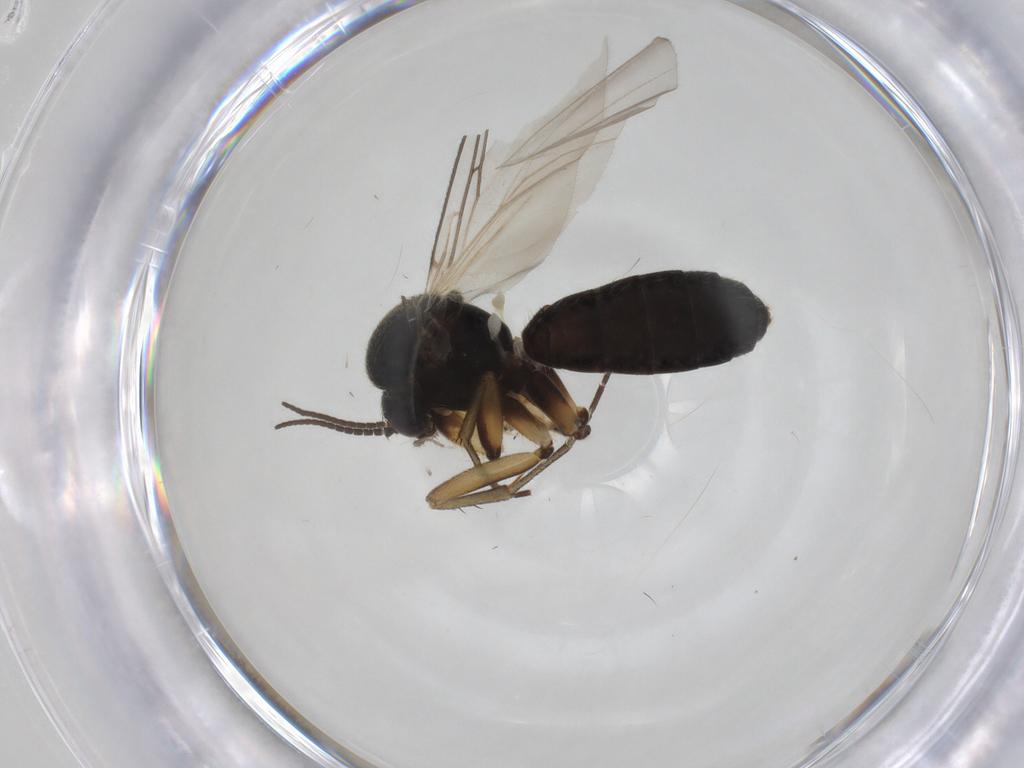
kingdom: Animalia
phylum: Arthropoda
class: Insecta
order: Diptera
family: Mycetophilidae
